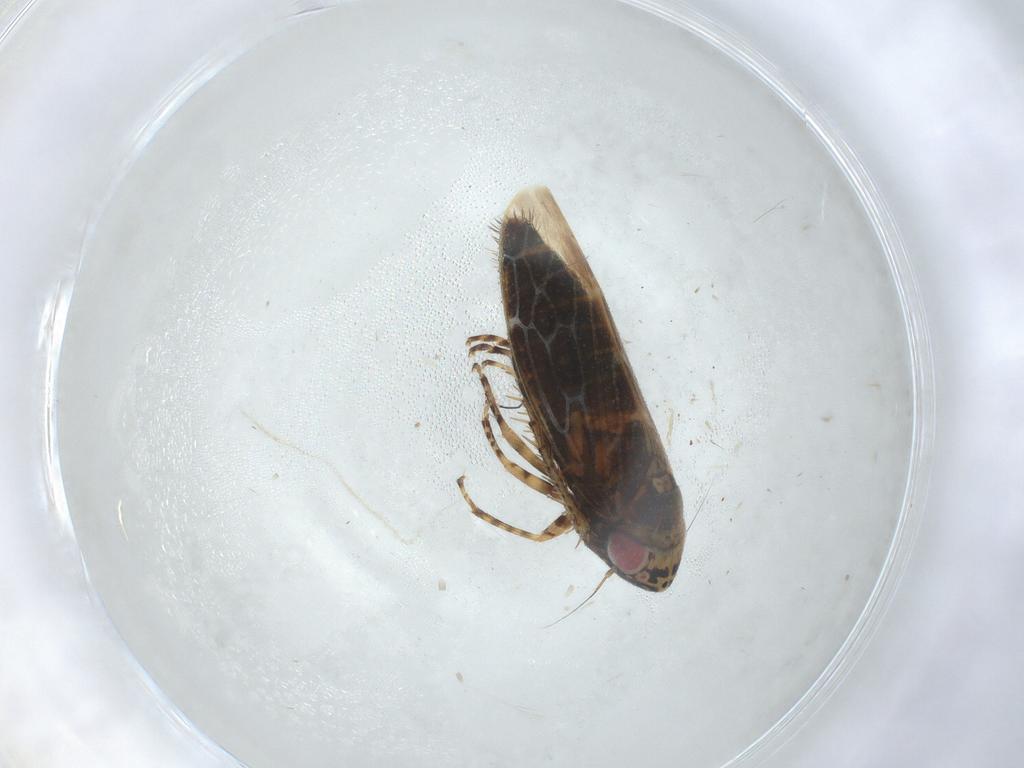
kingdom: Animalia
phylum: Arthropoda
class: Insecta
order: Hemiptera
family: Cicadellidae
